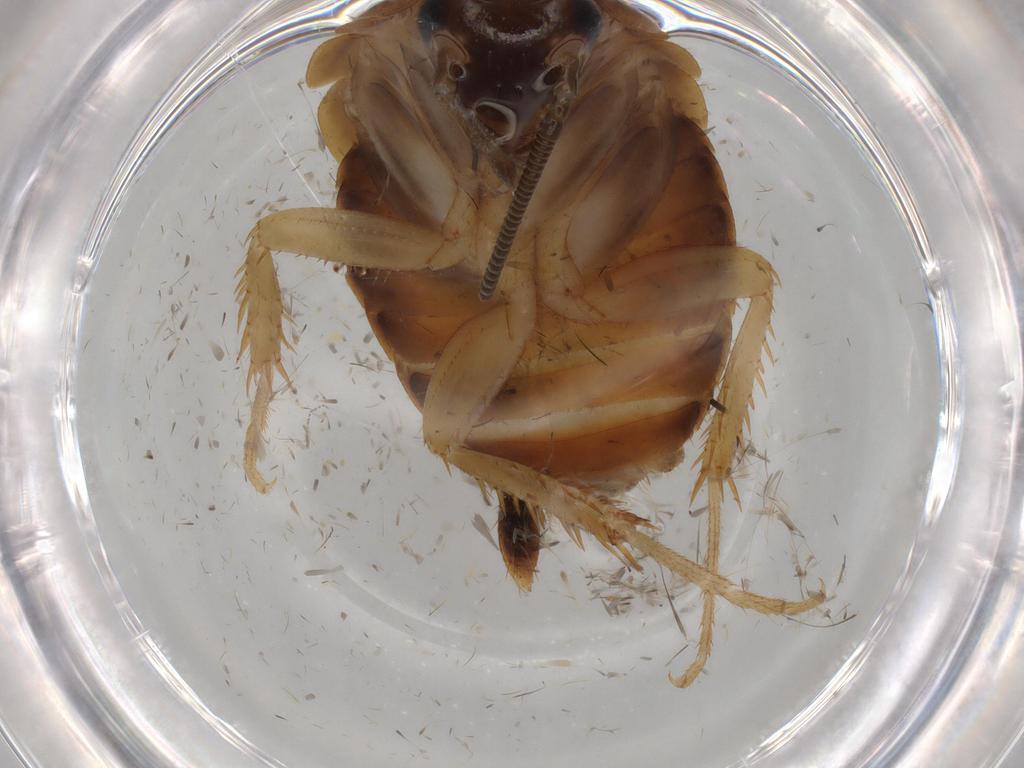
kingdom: Animalia
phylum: Arthropoda
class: Insecta
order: Blattodea
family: Ectobiidae
